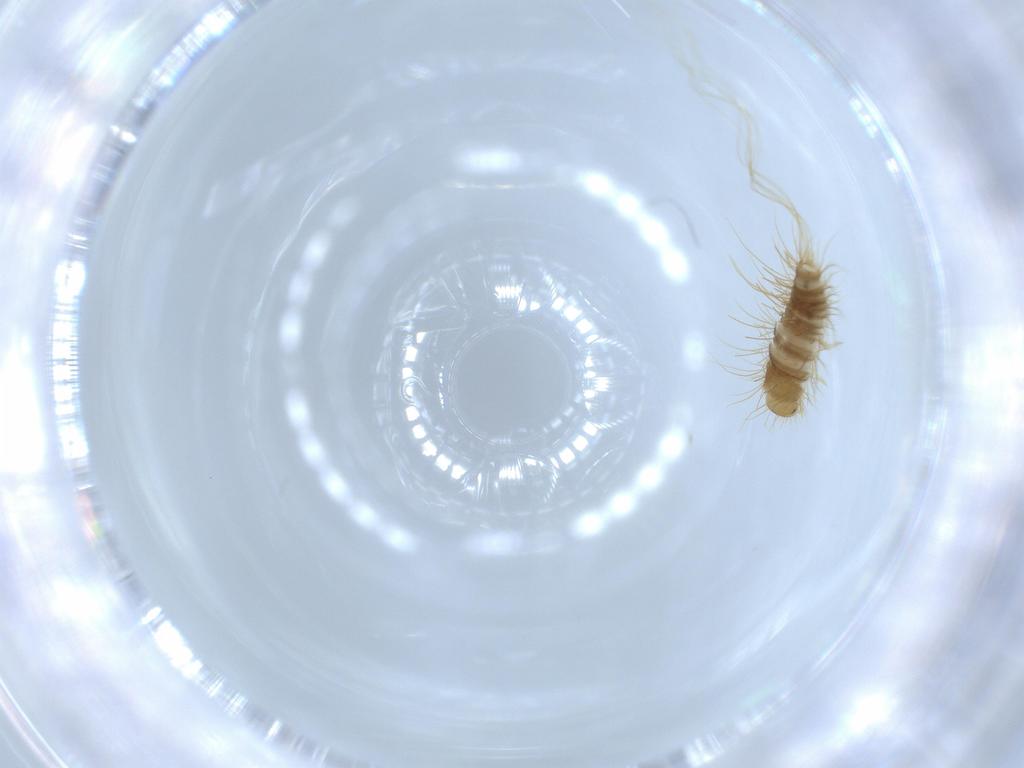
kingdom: Animalia
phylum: Arthropoda
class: Insecta
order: Coleoptera
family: Dermestidae
